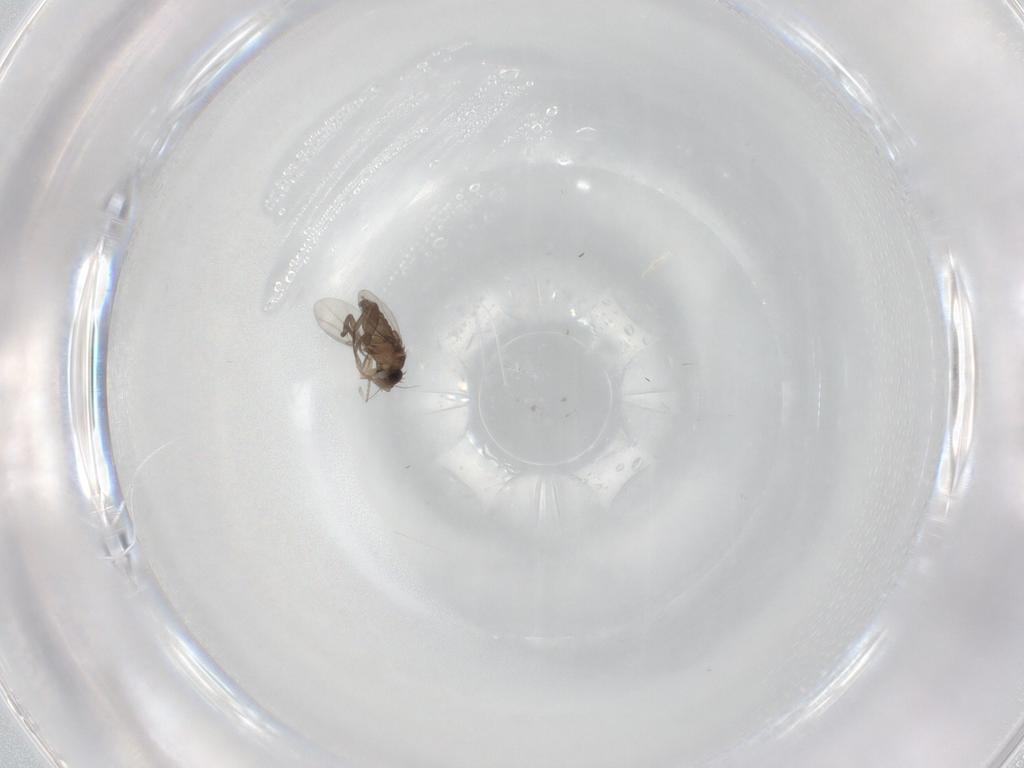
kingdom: Animalia
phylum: Arthropoda
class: Insecta
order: Diptera
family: Phoridae
